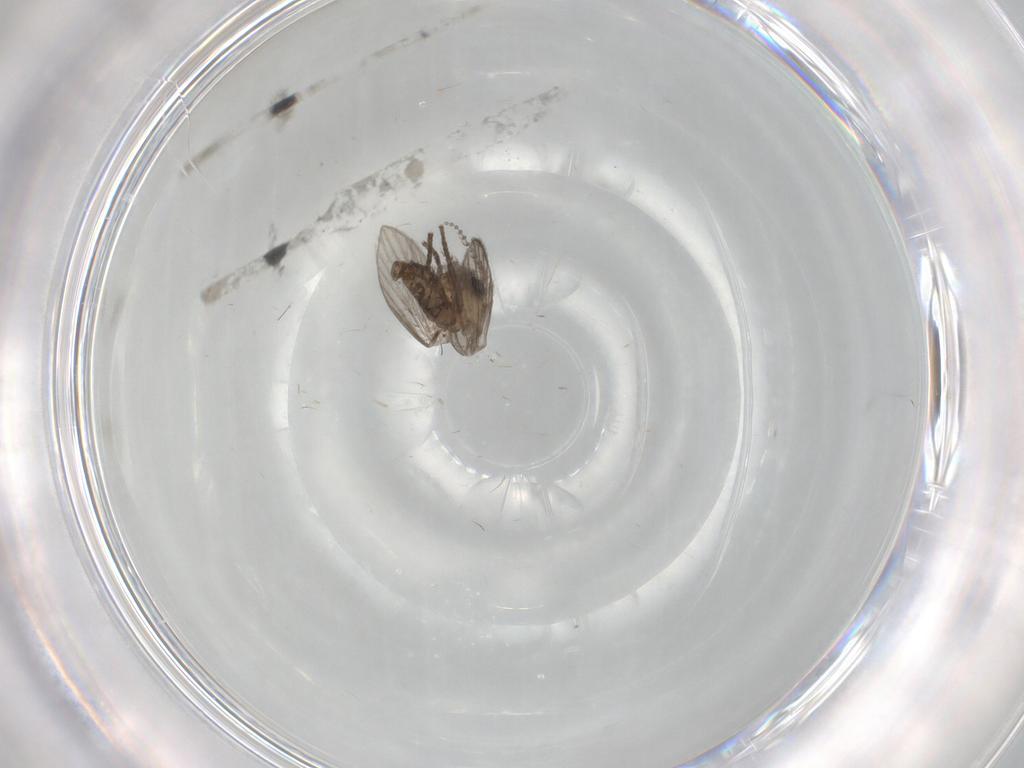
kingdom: Animalia
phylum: Arthropoda
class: Insecta
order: Diptera
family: Psychodidae
